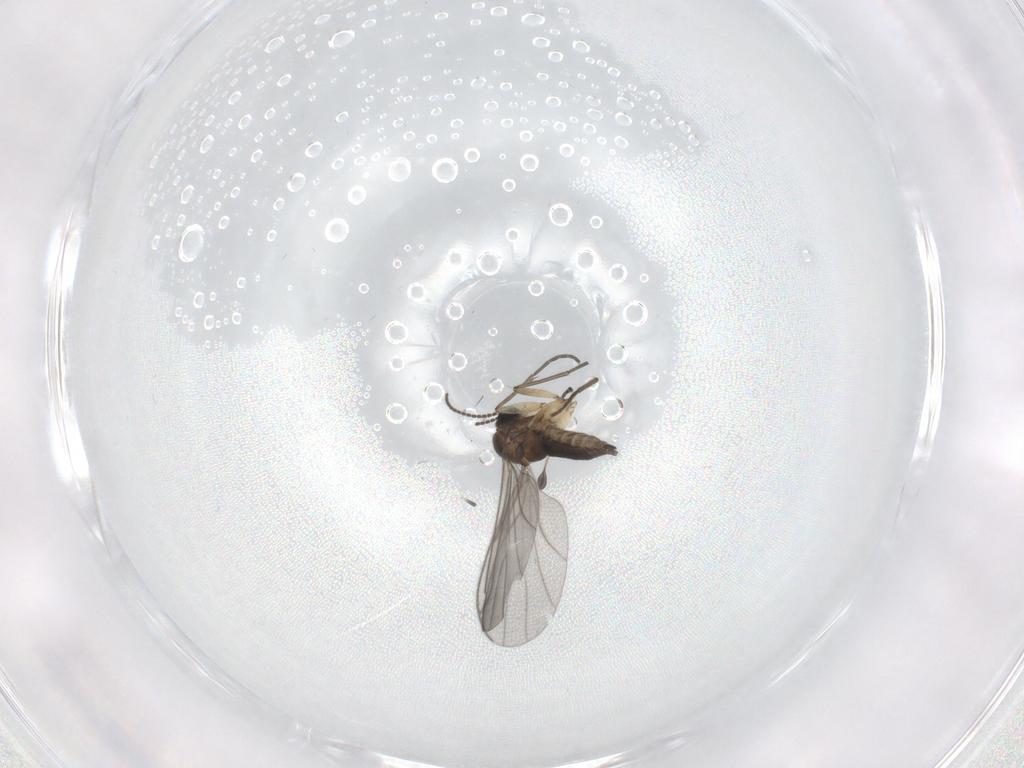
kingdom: Animalia
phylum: Arthropoda
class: Insecta
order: Diptera
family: Sciaridae
